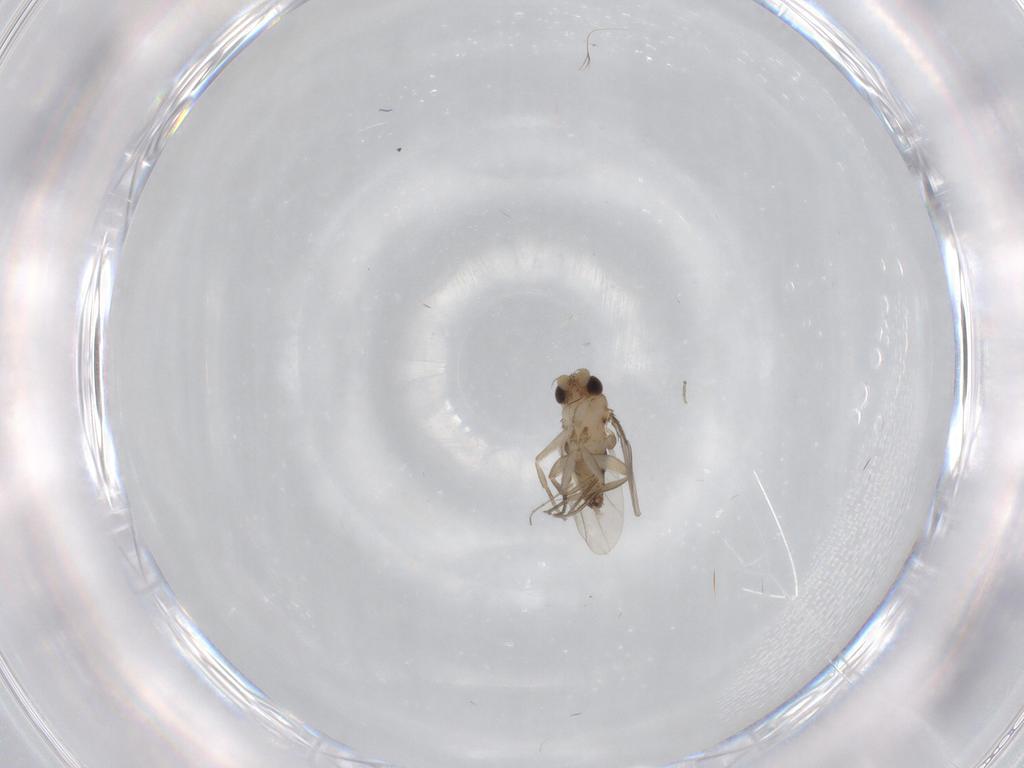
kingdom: Animalia
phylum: Arthropoda
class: Insecta
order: Diptera
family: Phoridae
